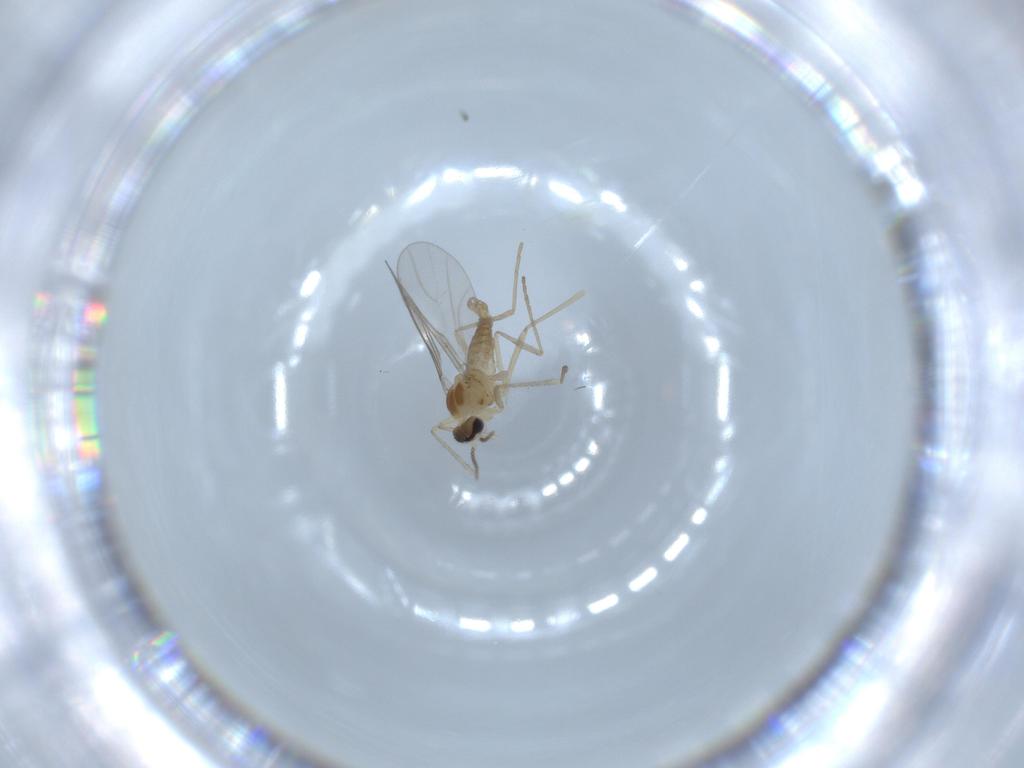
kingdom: Animalia
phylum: Arthropoda
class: Insecta
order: Diptera
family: Cecidomyiidae
